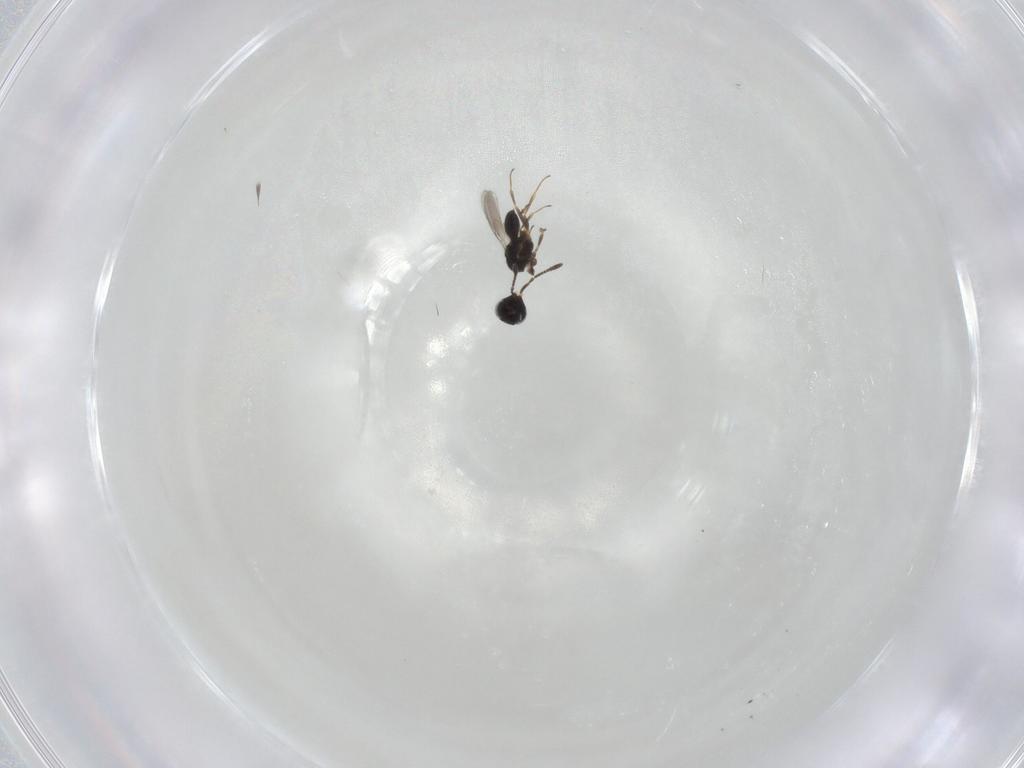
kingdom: Animalia
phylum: Arthropoda
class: Insecta
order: Hymenoptera
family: Scelionidae
